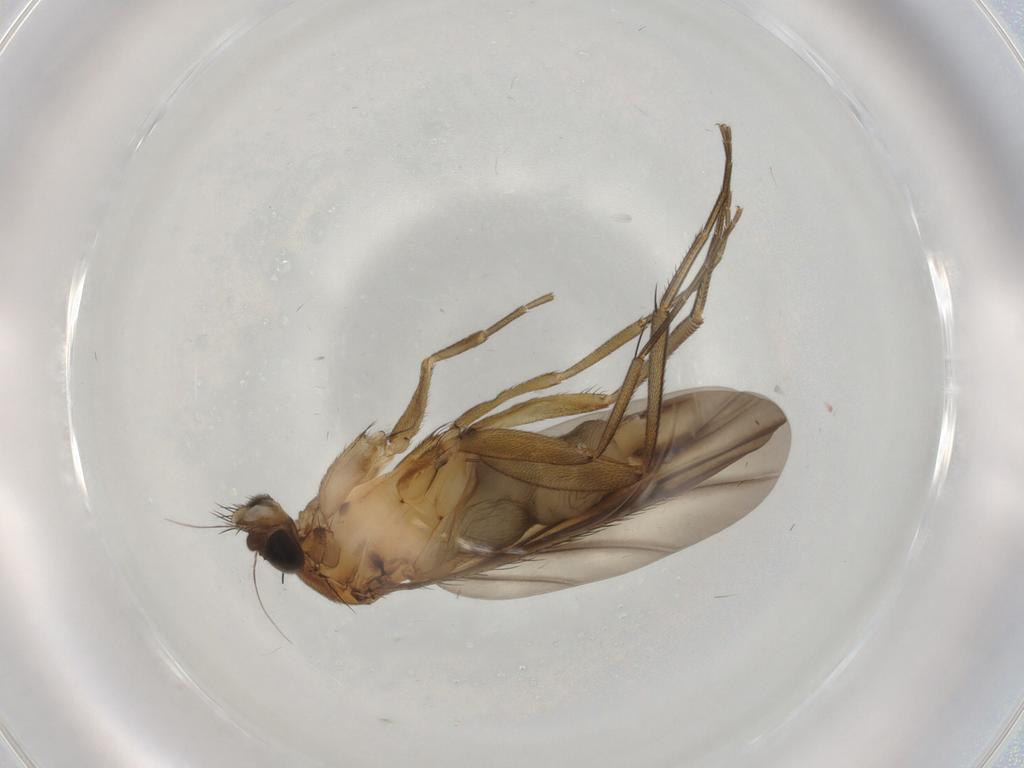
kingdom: Animalia
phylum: Arthropoda
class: Insecta
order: Diptera
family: Phoridae
